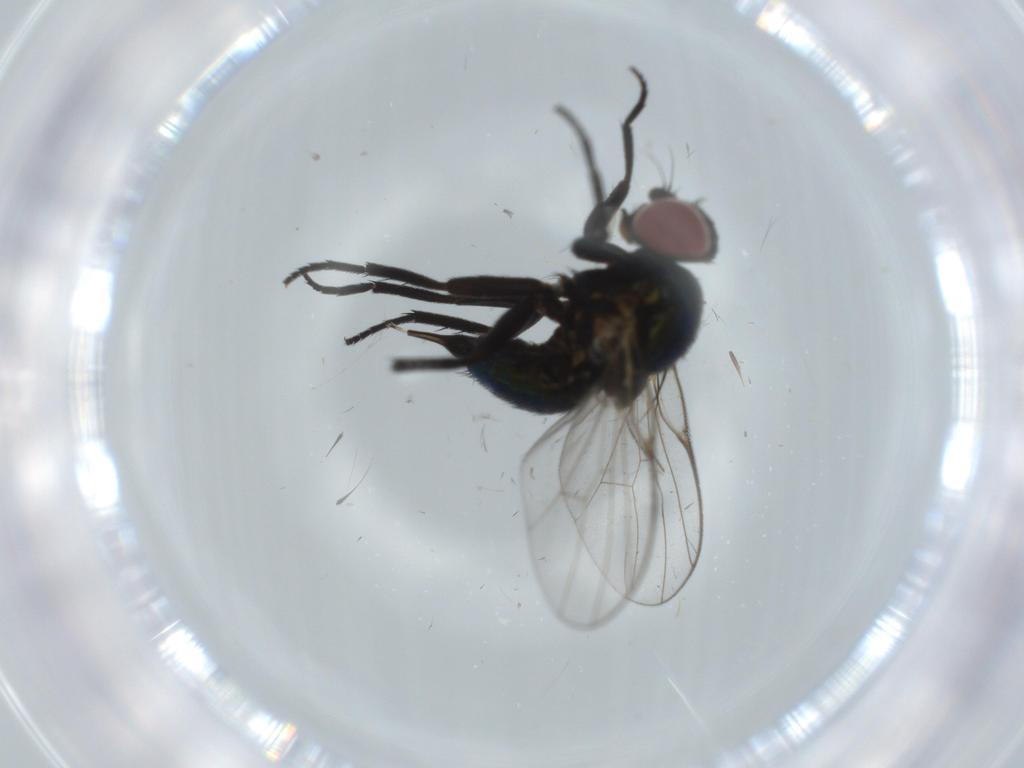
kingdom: Animalia
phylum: Arthropoda
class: Insecta
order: Diptera
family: Sciaridae
